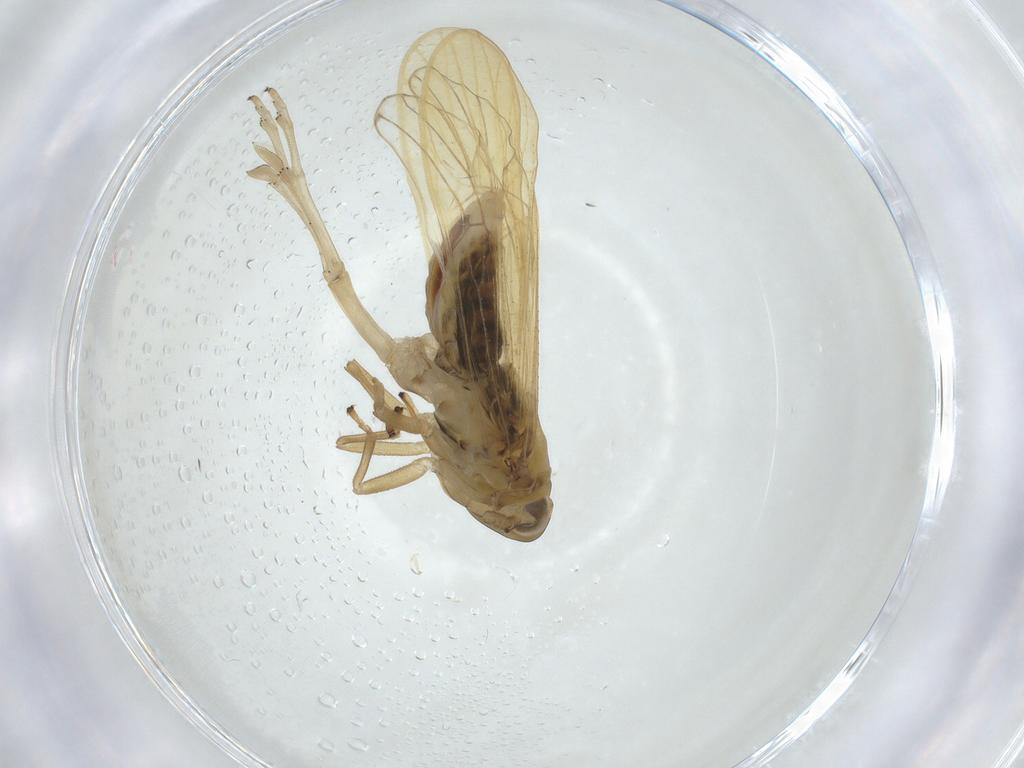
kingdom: Animalia
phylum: Arthropoda
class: Insecta
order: Hemiptera
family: Delphacidae
